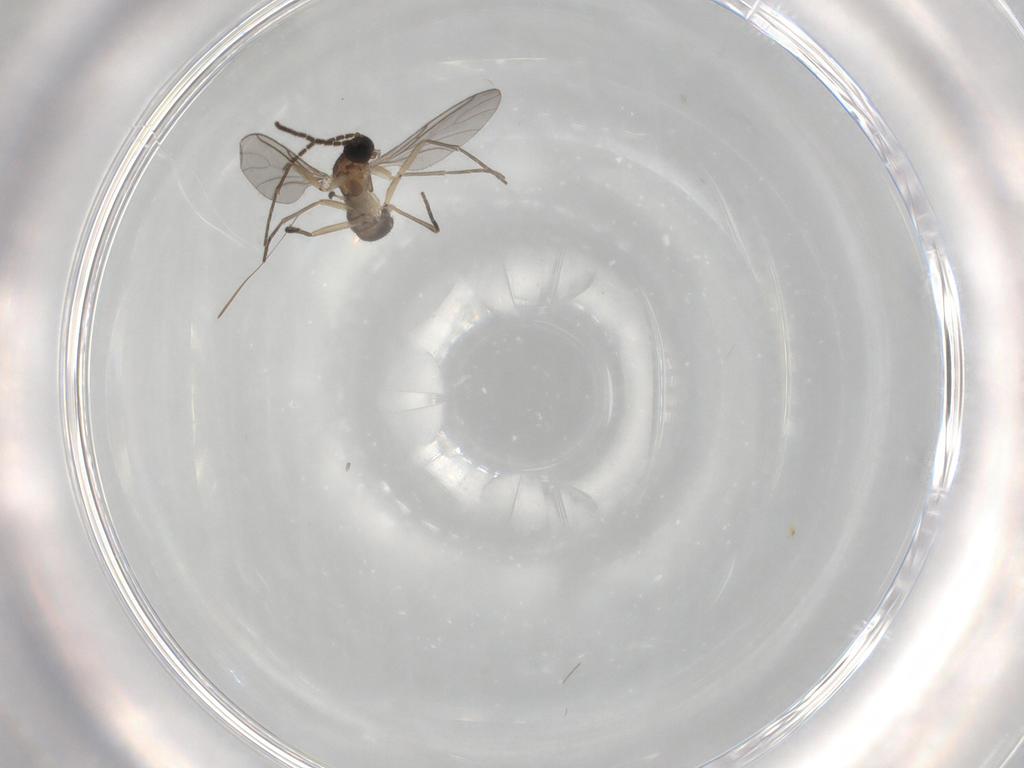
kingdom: Animalia
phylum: Arthropoda
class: Insecta
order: Diptera
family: Sciaridae
